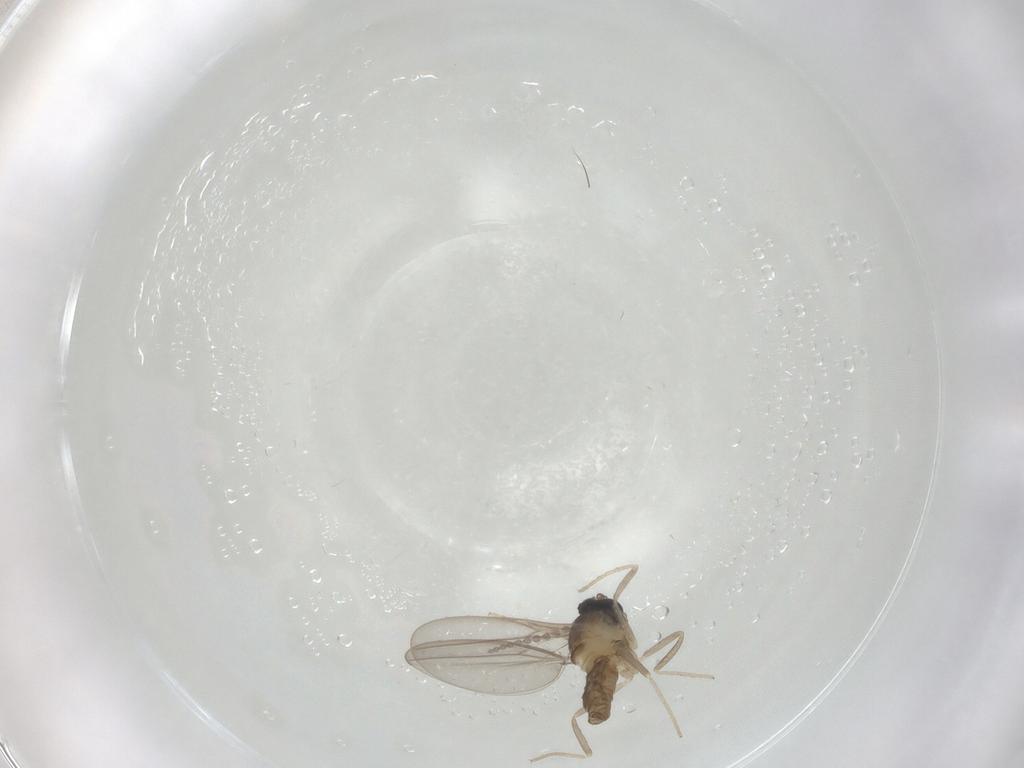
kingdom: Animalia
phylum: Arthropoda
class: Insecta
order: Diptera
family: Cecidomyiidae
